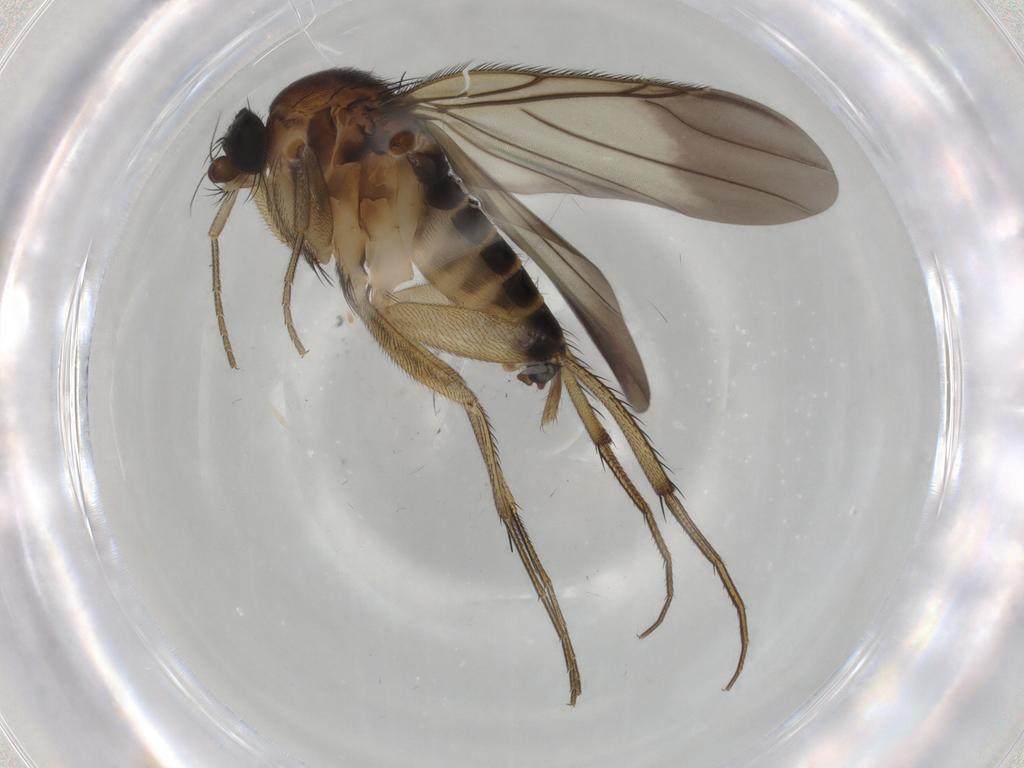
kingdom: Animalia
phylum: Arthropoda
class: Insecta
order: Diptera
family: Phoridae
